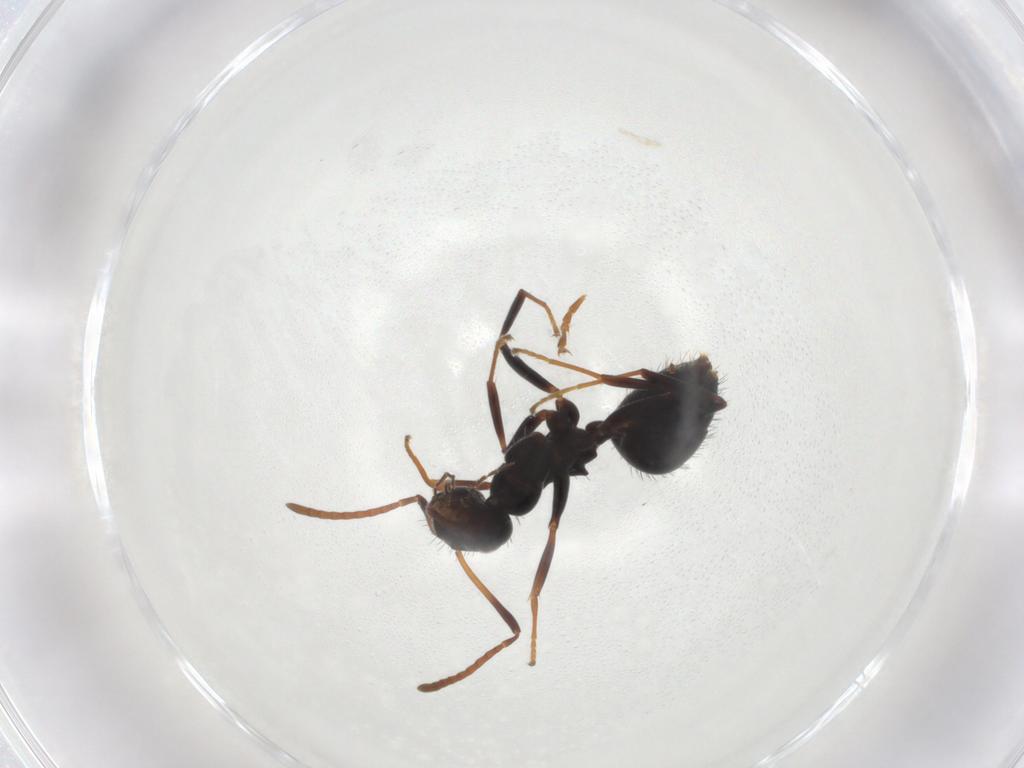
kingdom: Animalia
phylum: Arthropoda
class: Insecta
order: Hymenoptera
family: Formicidae
